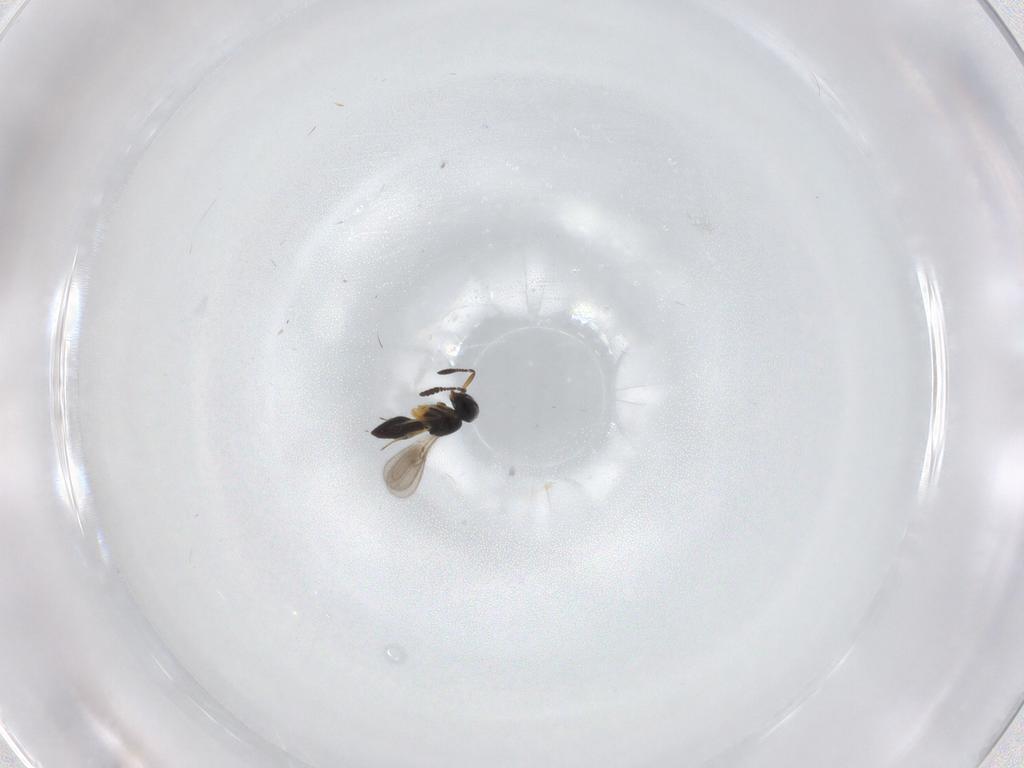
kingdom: Animalia
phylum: Arthropoda
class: Insecta
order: Hymenoptera
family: Scelionidae
